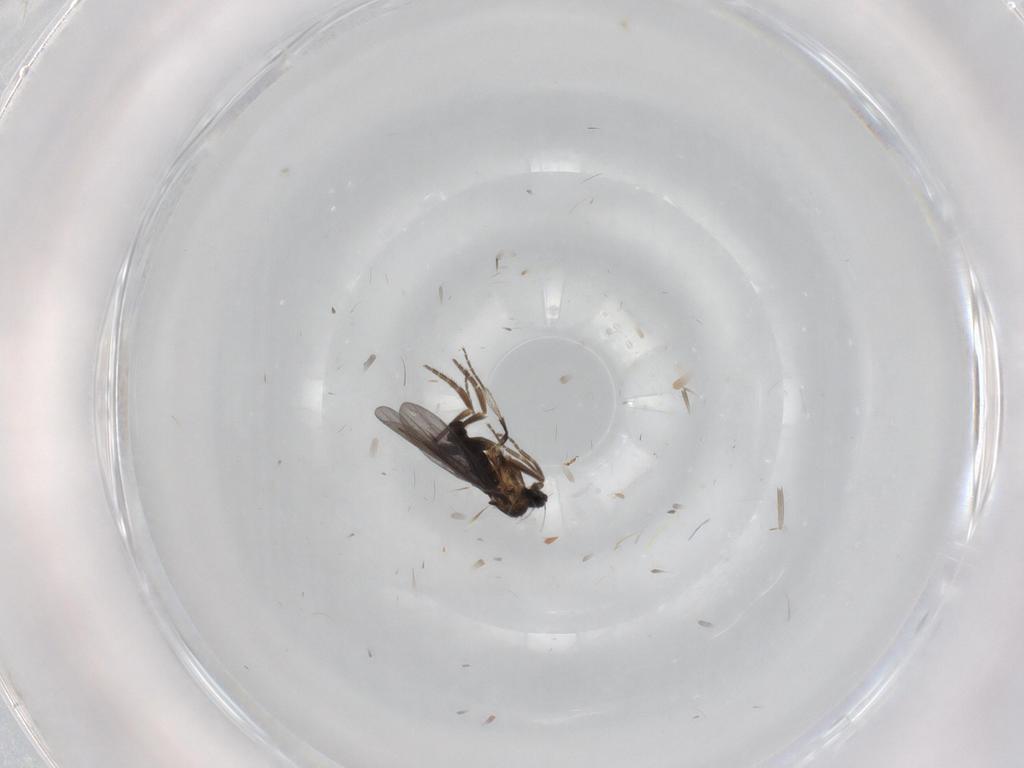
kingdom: Animalia
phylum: Arthropoda
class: Insecta
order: Diptera
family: Phoridae
